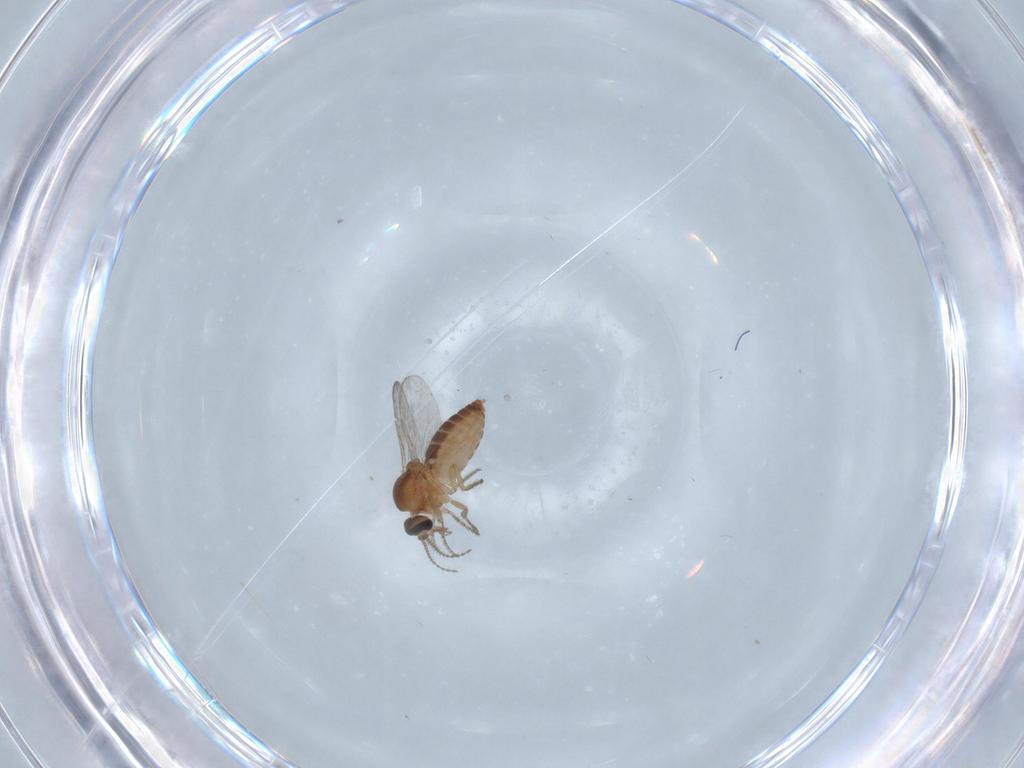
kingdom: Animalia
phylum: Arthropoda
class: Insecta
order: Diptera
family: Ceratopogonidae
